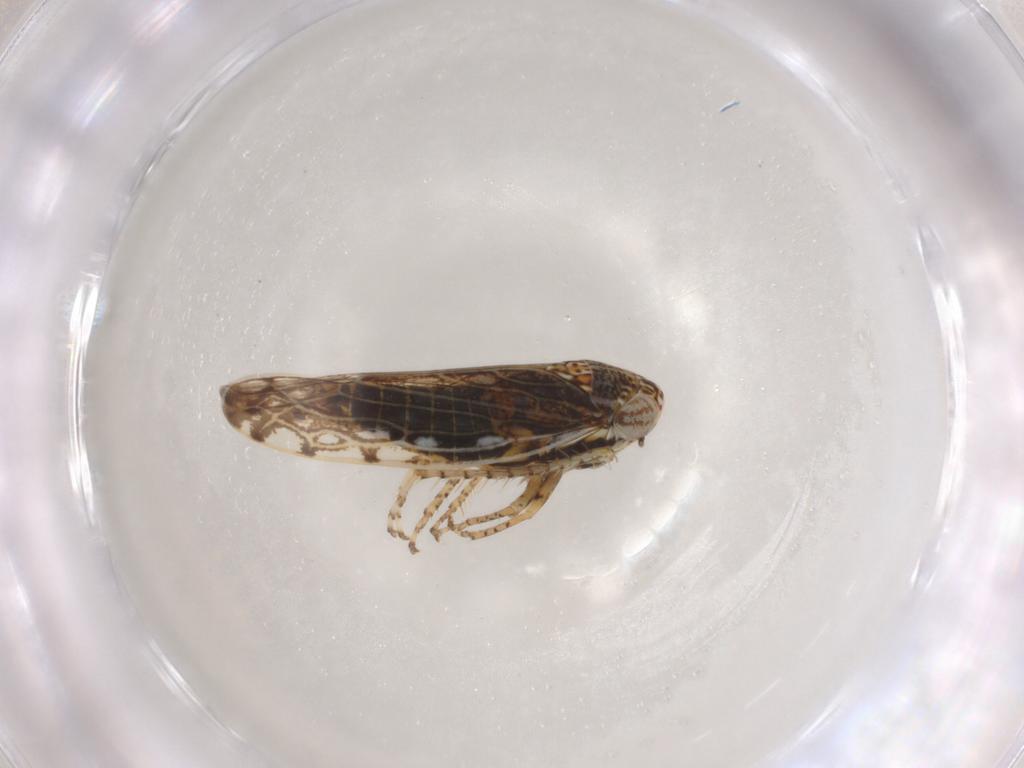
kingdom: Animalia
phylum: Arthropoda
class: Insecta
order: Hemiptera
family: Cicadellidae
